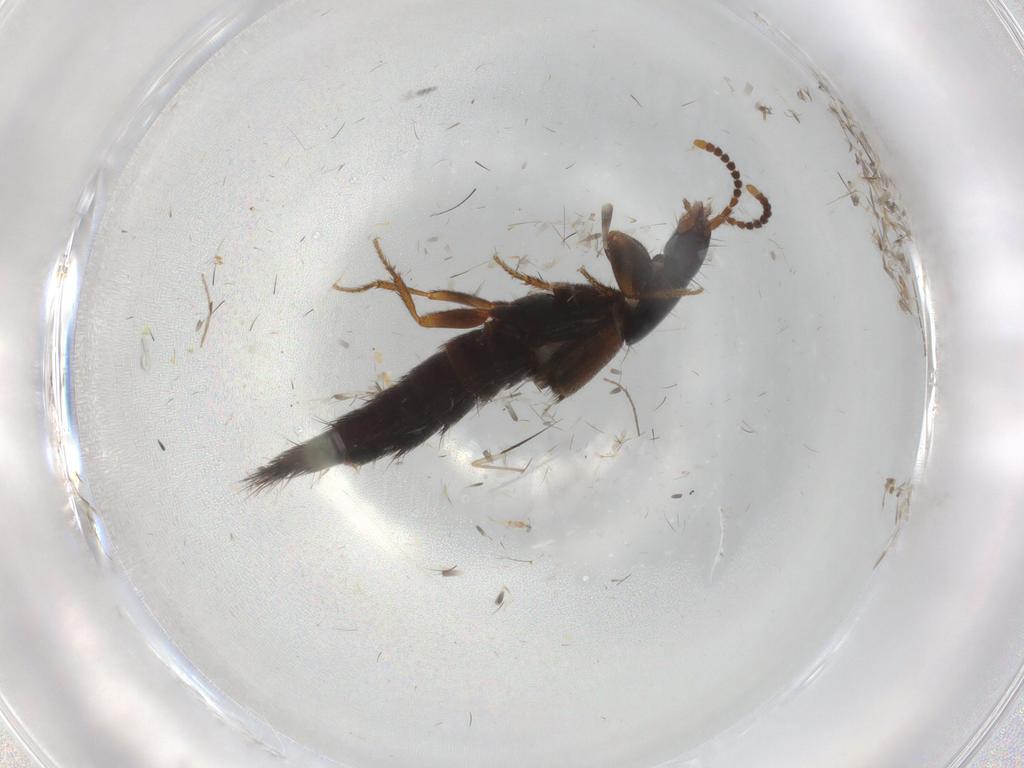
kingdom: Animalia
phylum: Arthropoda
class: Insecta
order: Coleoptera
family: Staphylinidae
